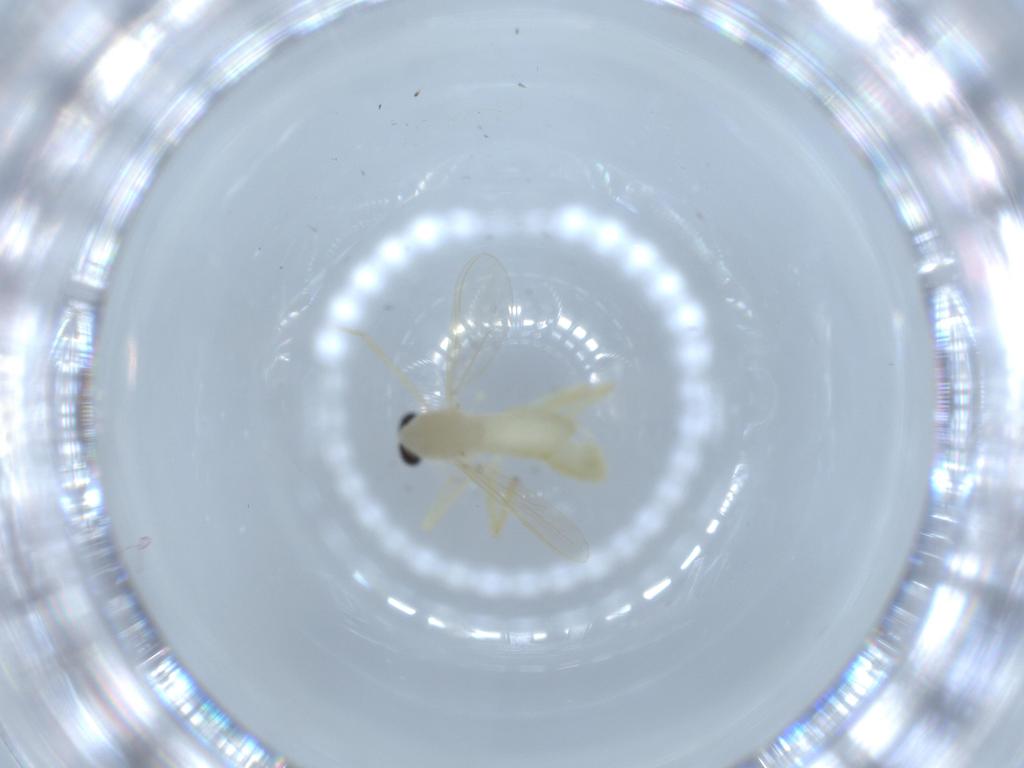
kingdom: Animalia
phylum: Arthropoda
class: Insecta
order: Diptera
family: Chironomidae
